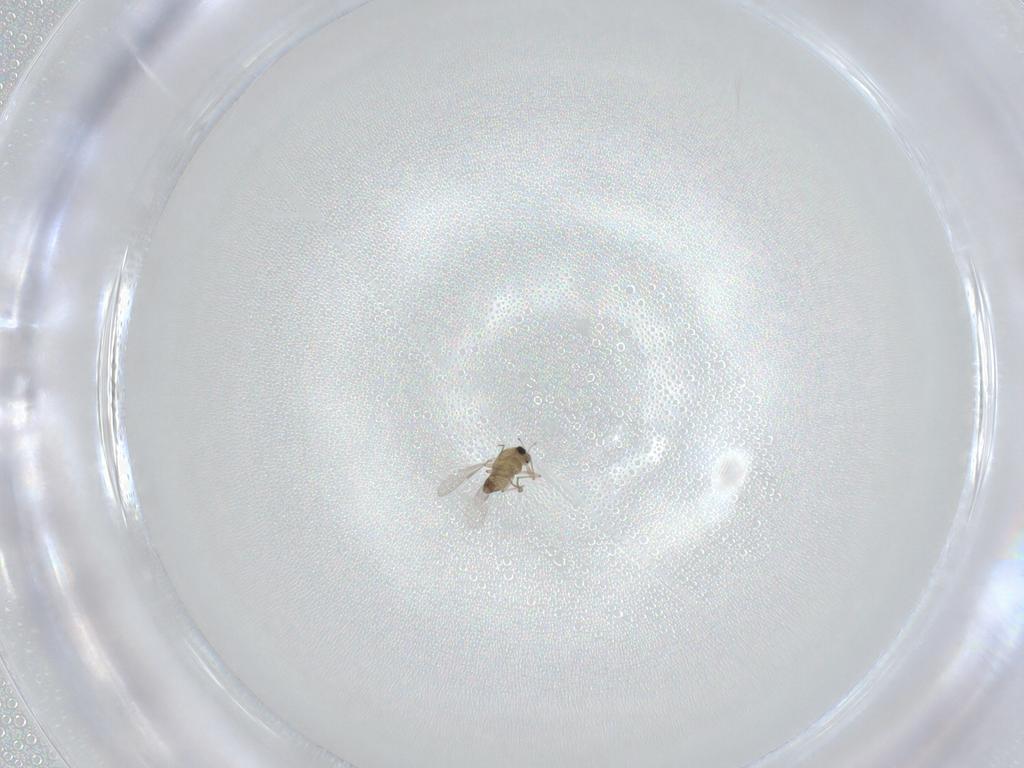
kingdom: Animalia
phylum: Arthropoda
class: Insecta
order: Diptera
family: Chironomidae
